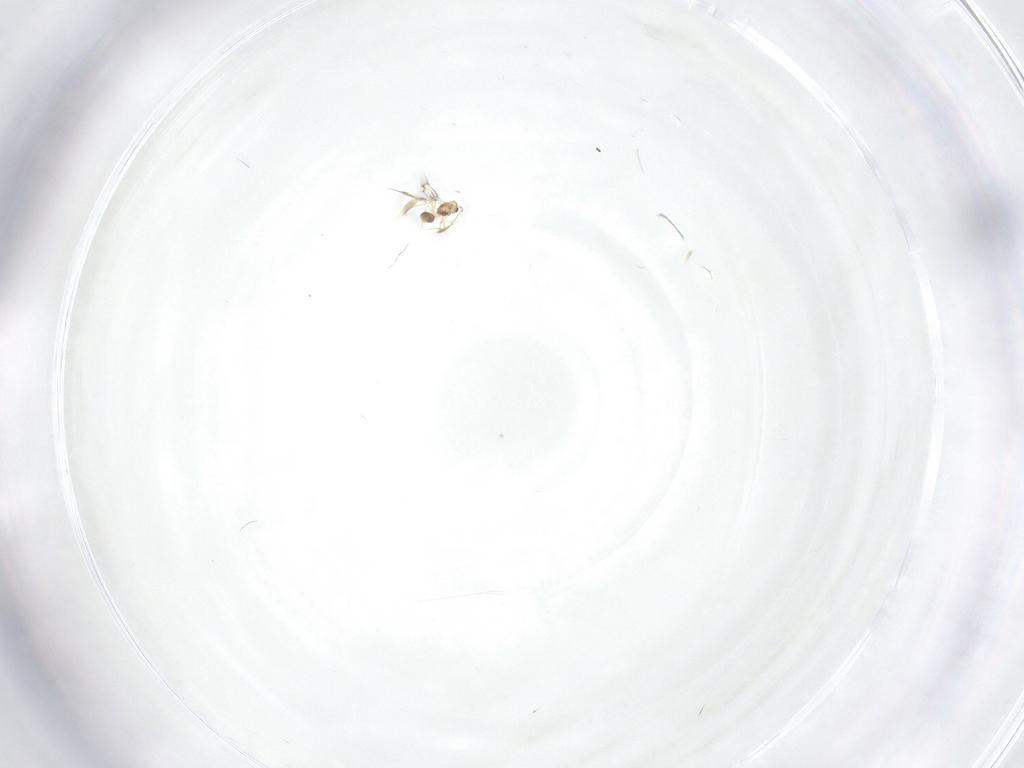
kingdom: Animalia
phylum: Arthropoda
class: Insecta
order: Hymenoptera
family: Mymarommatidae
